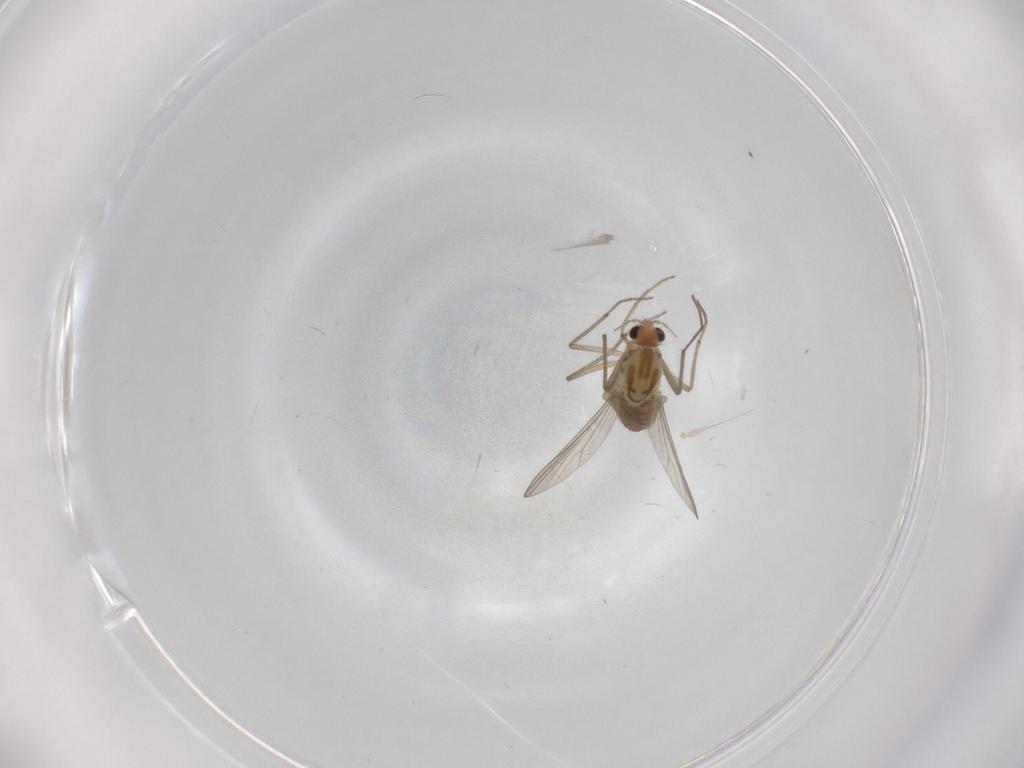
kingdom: Animalia
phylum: Arthropoda
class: Insecta
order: Diptera
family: Chironomidae
